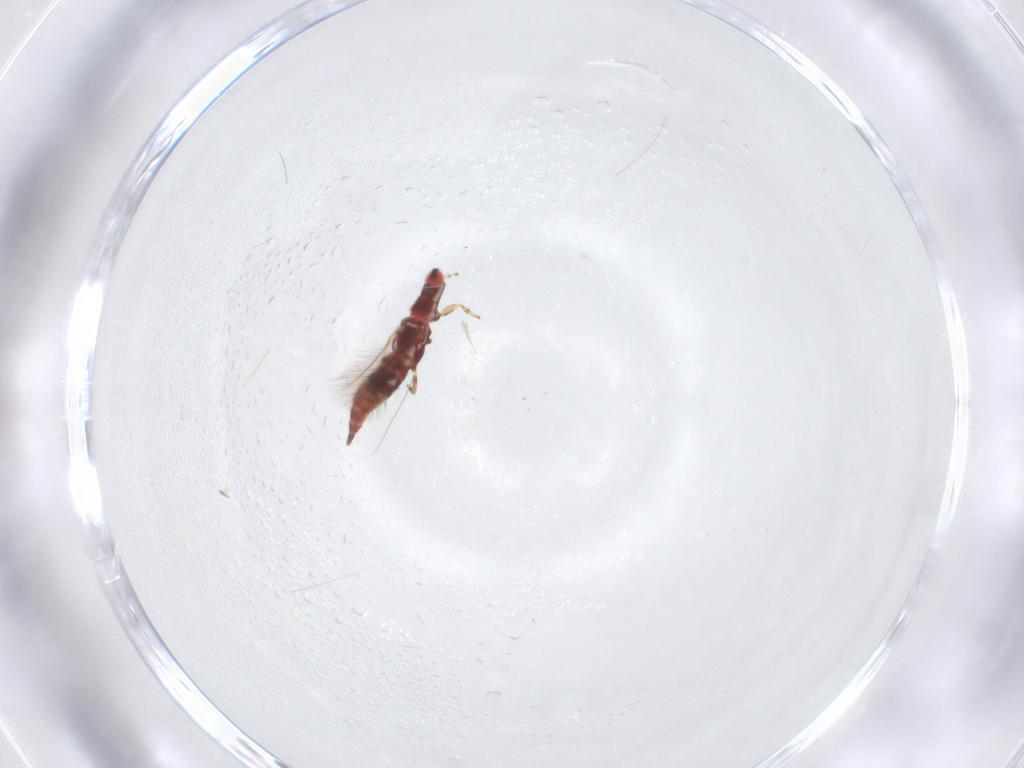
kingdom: Animalia
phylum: Arthropoda
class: Insecta
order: Thysanoptera
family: Phlaeothripidae
